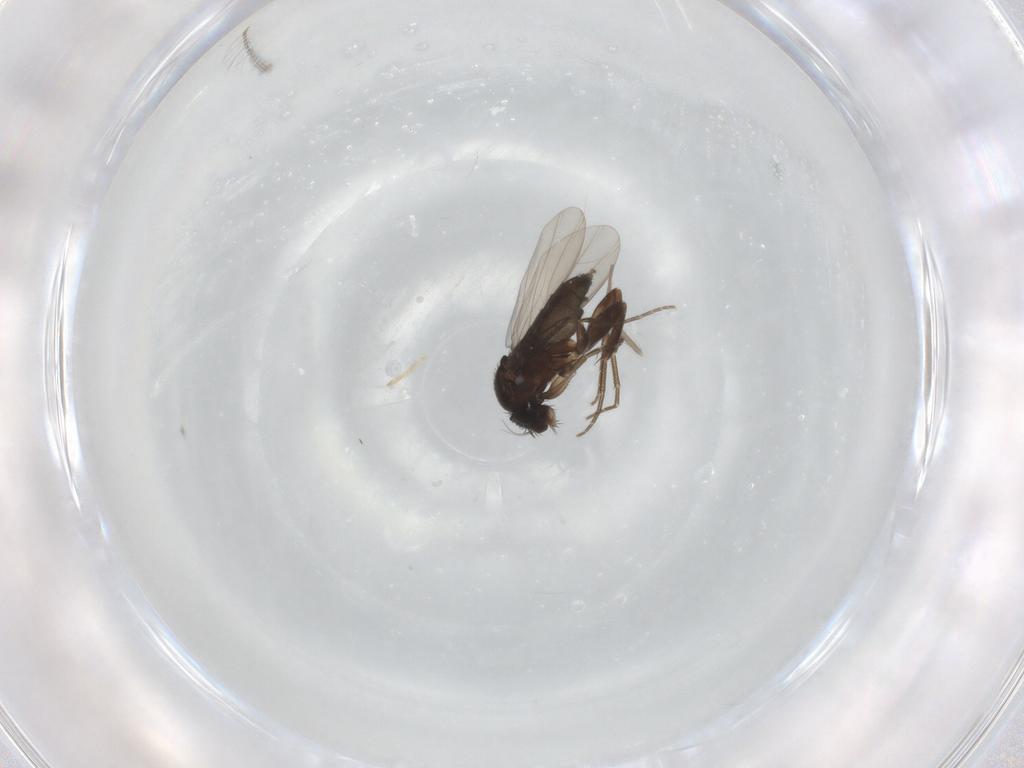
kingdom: Animalia
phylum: Arthropoda
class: Insecta
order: Diptera
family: Phoridae
